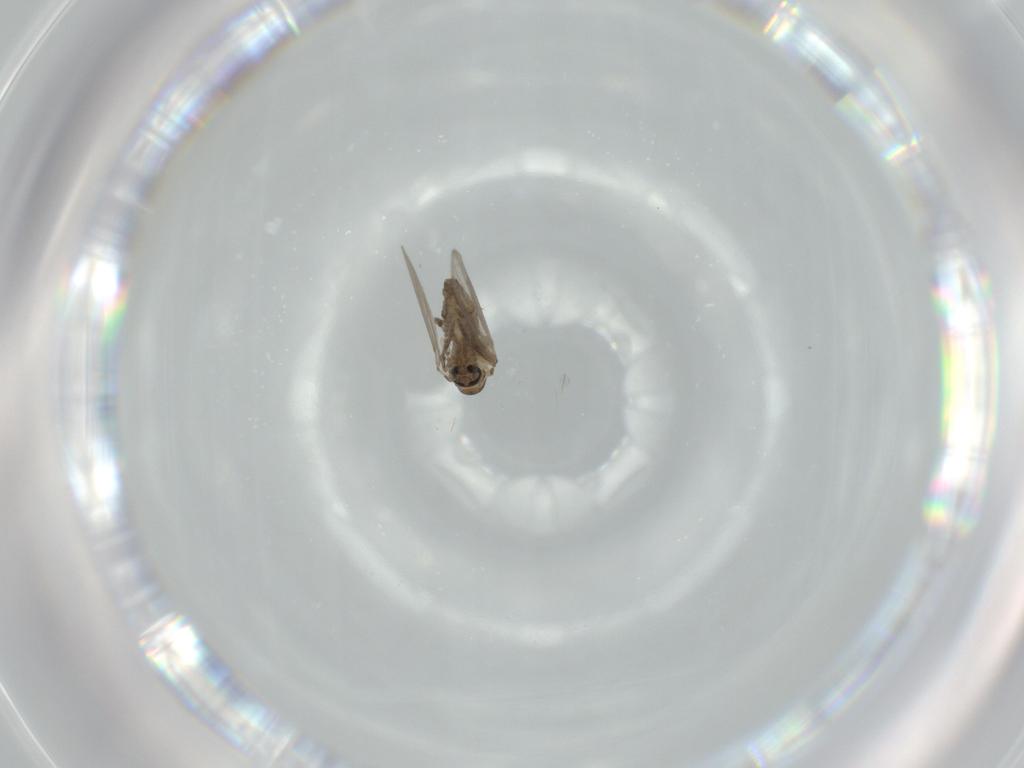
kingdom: Animalia
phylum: Arthropoda
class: Insecta
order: Diptera
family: Psychodidae
